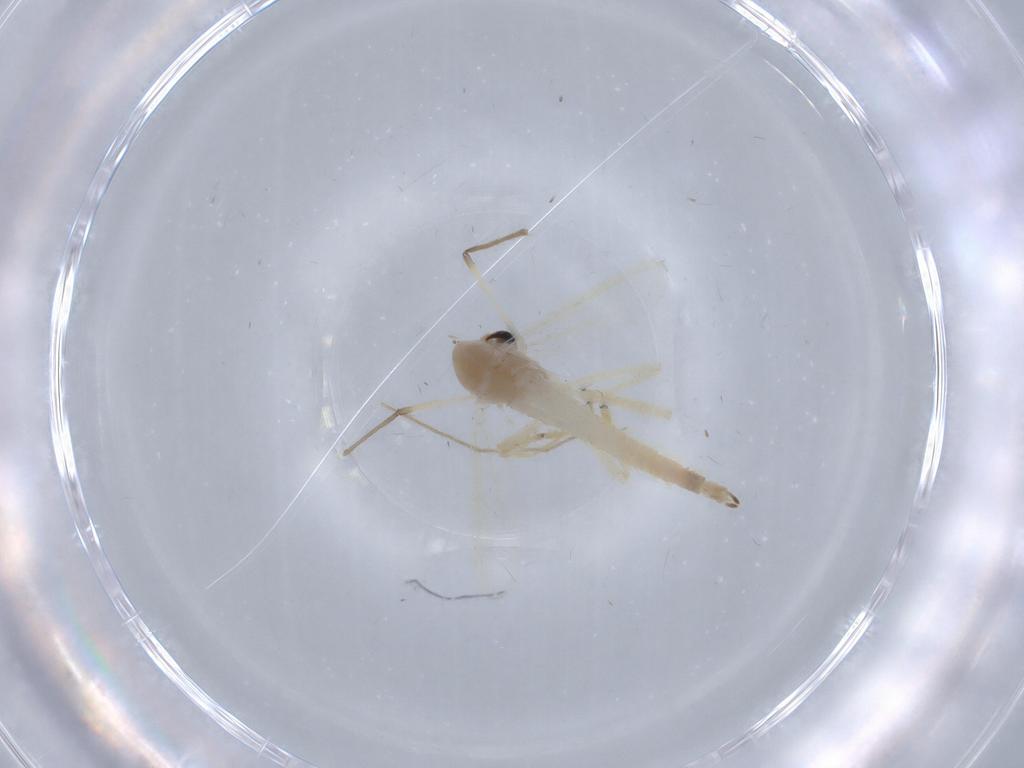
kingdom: Animalia
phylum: Arthropoda
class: Insecta
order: Diptera
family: Chironomidae
